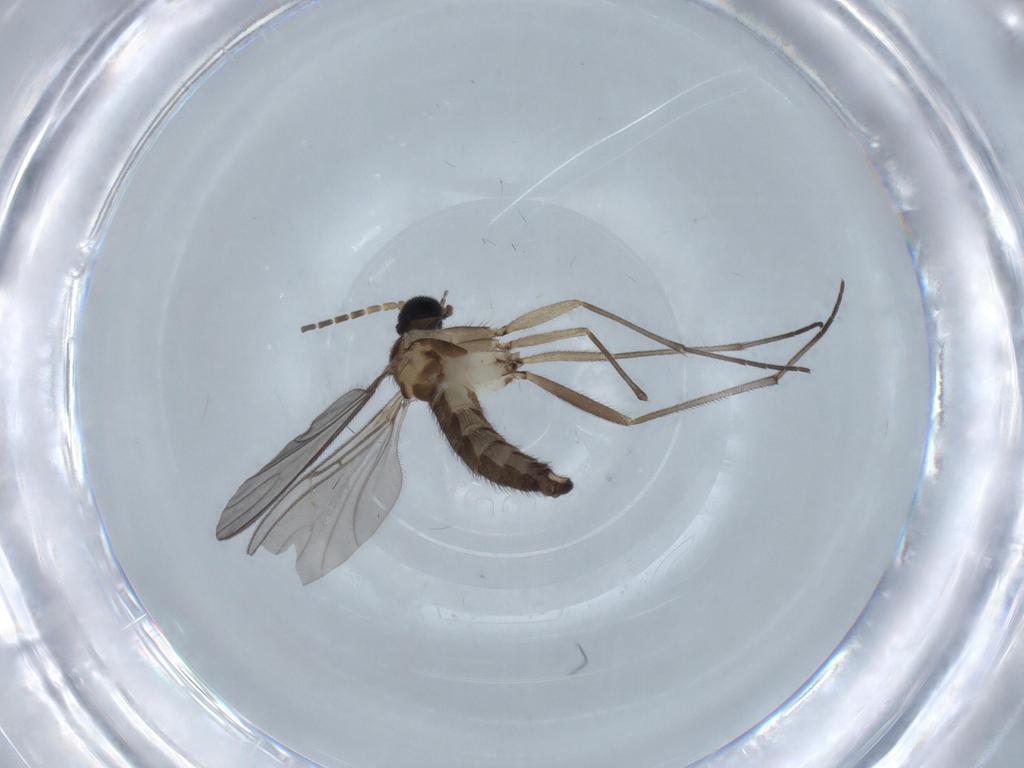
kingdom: Animalia
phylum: Arthropoda
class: Insecta
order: Diptera
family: Sciaridae
